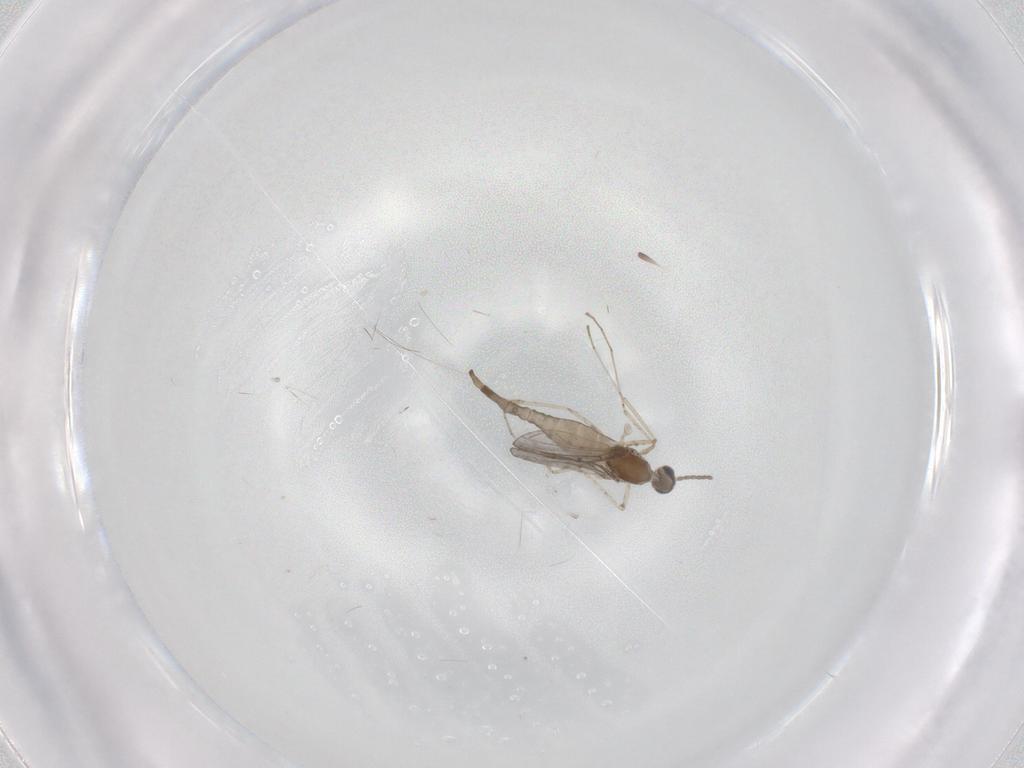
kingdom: Animalia
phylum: Arthropoda
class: Insecta
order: Diptera
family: Cecidomyiidae
